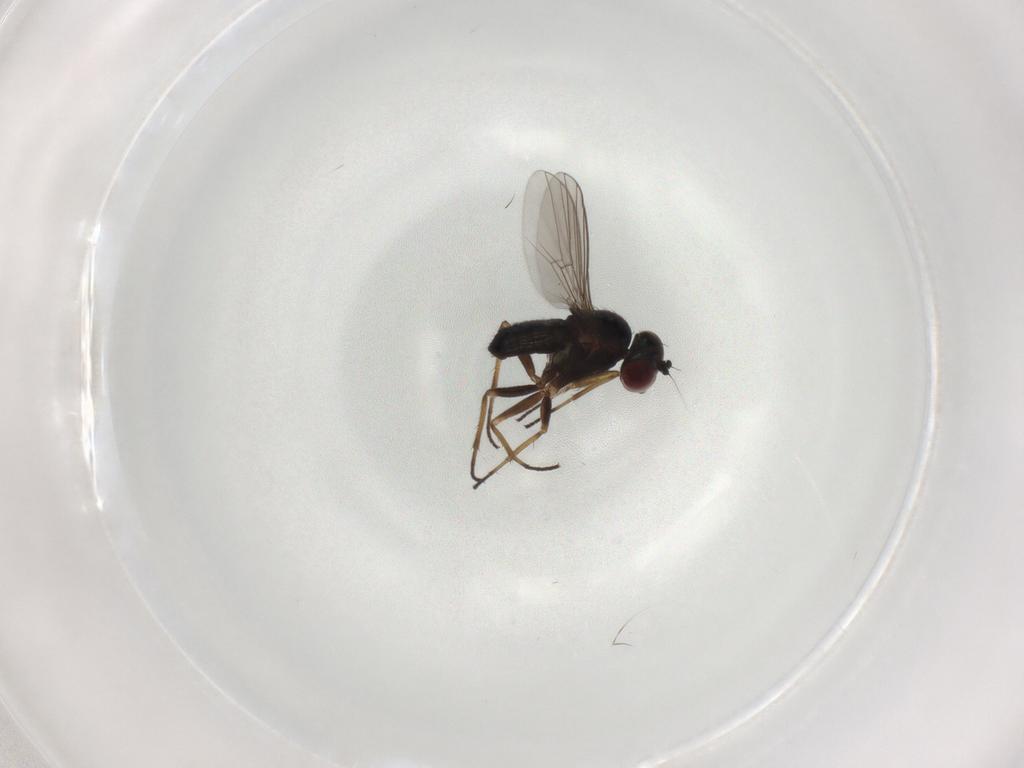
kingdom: Animalia
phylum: Arthropoda
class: Insecta
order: Diptera
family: Dolichopodidae
